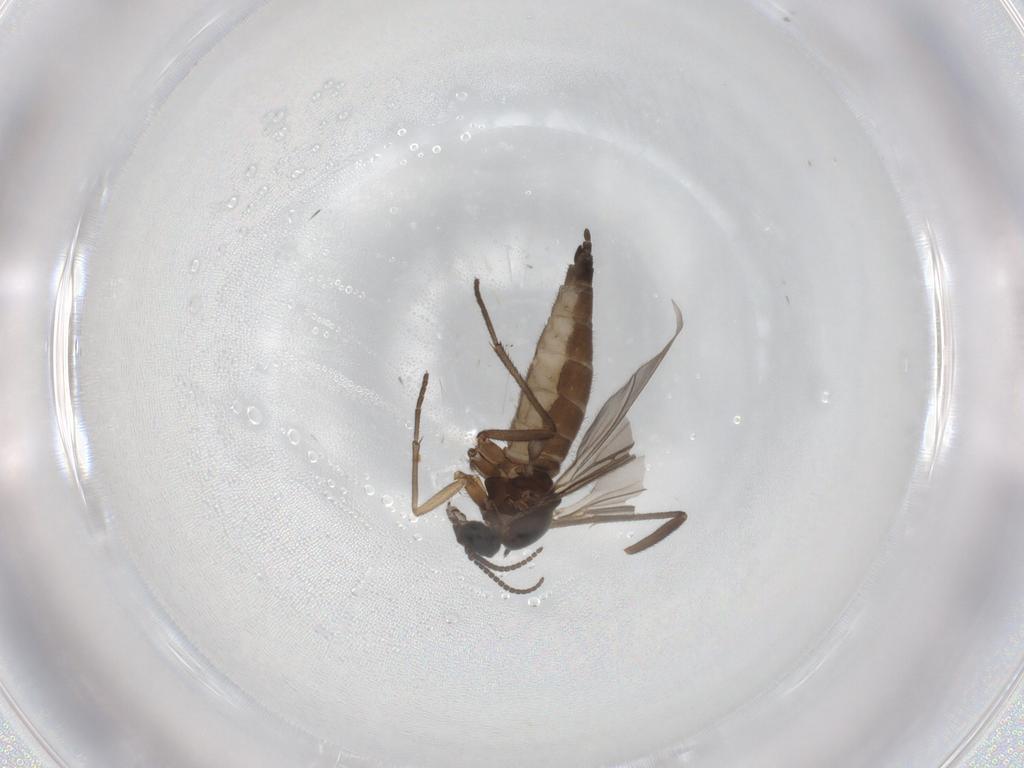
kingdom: Animalia
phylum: Arthropoda
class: Insecta
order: Diptera
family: Sciaridae
